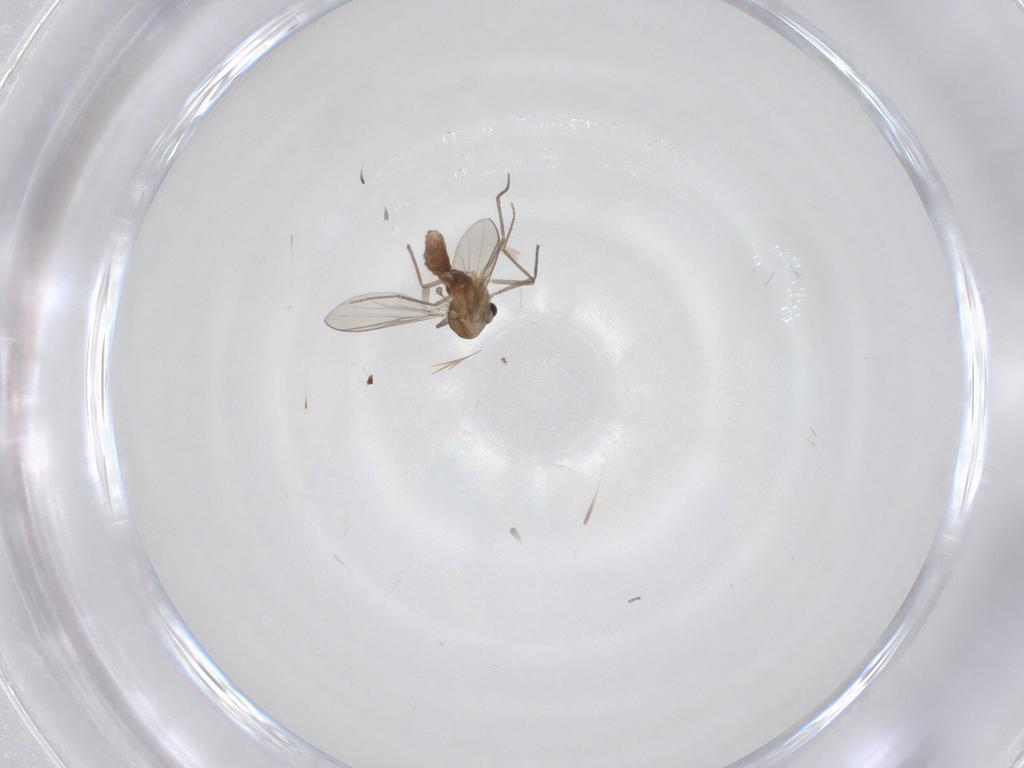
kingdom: Animalia
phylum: Arthropoda
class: Insecta
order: Diptera
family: Chironomidae
